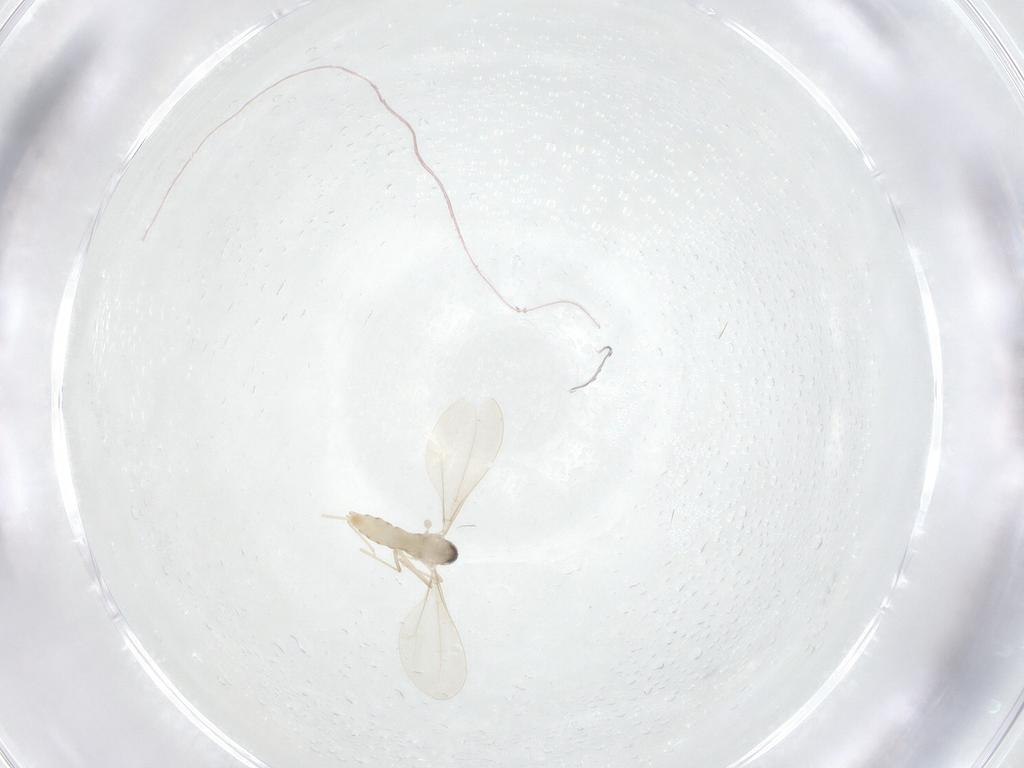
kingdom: Animalia
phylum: Arthropoda
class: Insecta
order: Diptera
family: Cecidomyiidae
